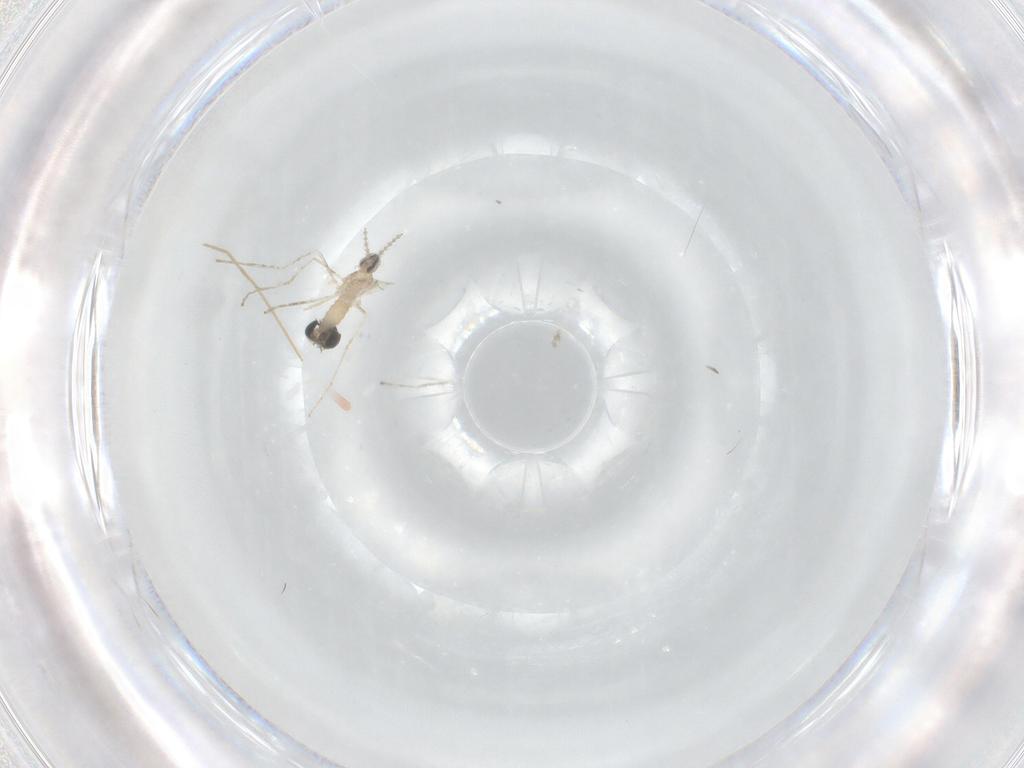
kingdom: Animalia
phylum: Arthropoda
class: Insecta
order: Diptera
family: Chironomidae
